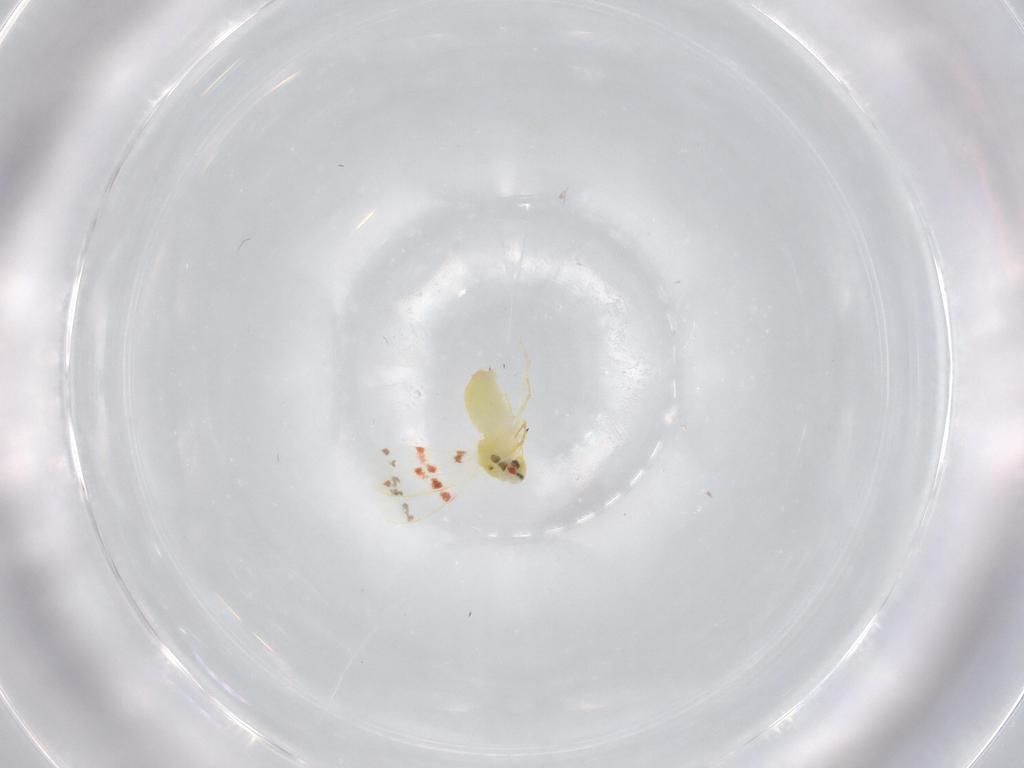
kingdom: Animalia
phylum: Arthropoda
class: Insecta
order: Hemiptera
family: Aleyrodidae
